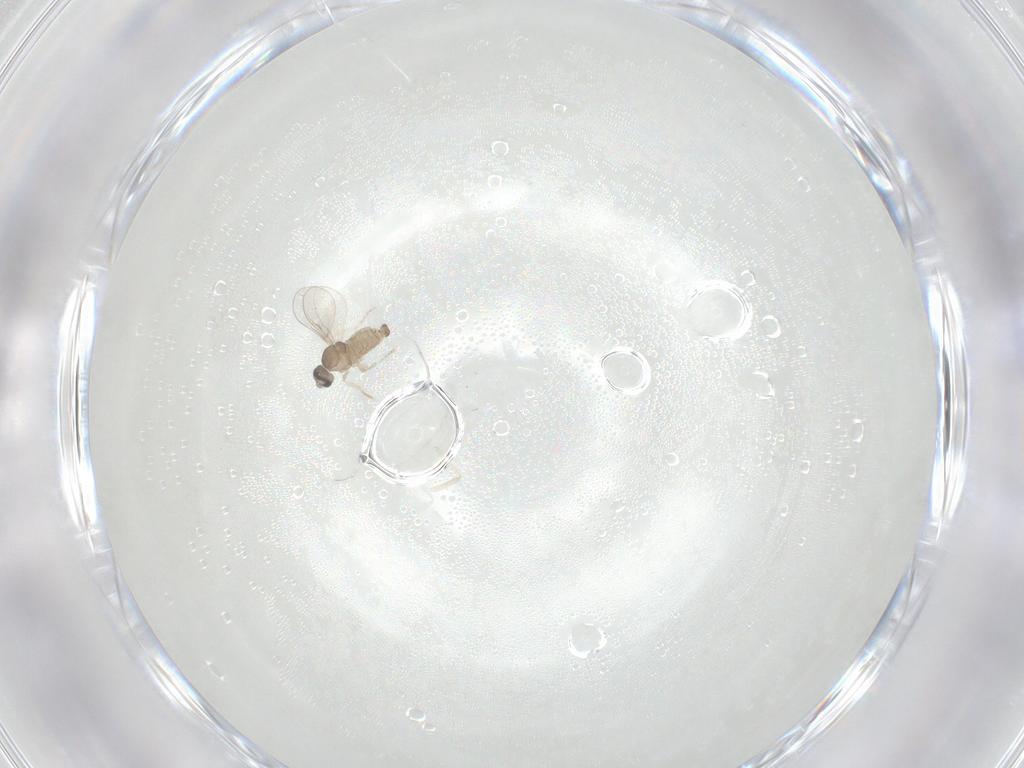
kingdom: Animalia
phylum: Arthropoda
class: Insecta
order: Diptera
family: Cecidomyiidae
